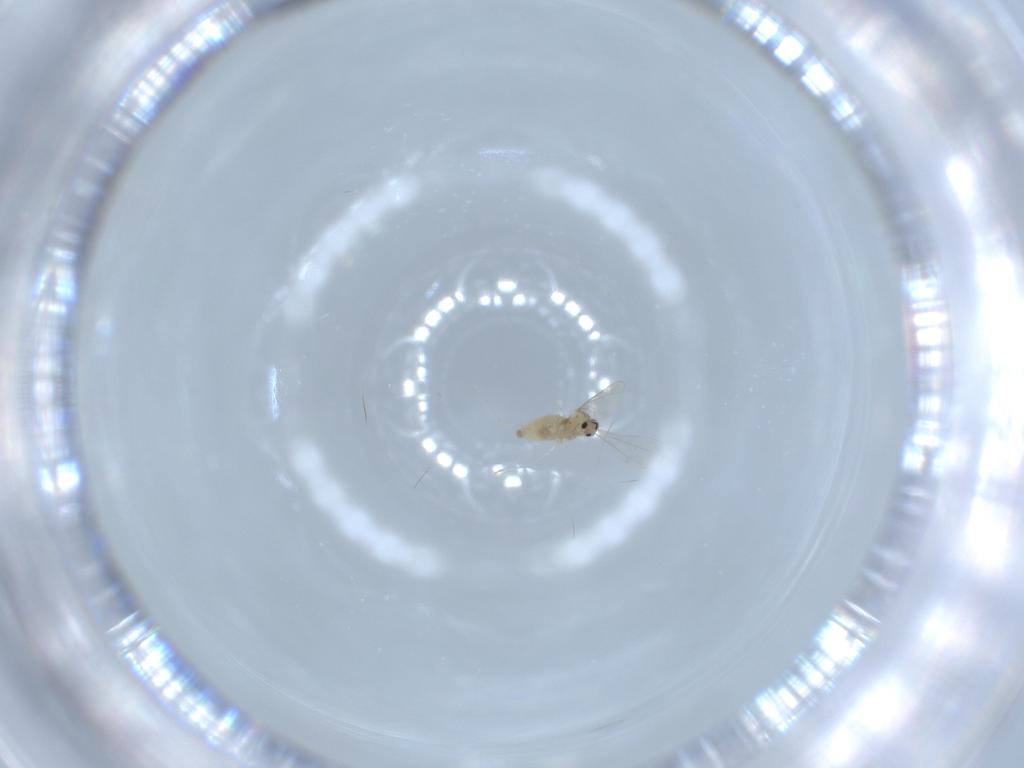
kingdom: Animalia
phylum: Arthropoda
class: Insecta
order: Diptera
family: Cecidomyiidae
